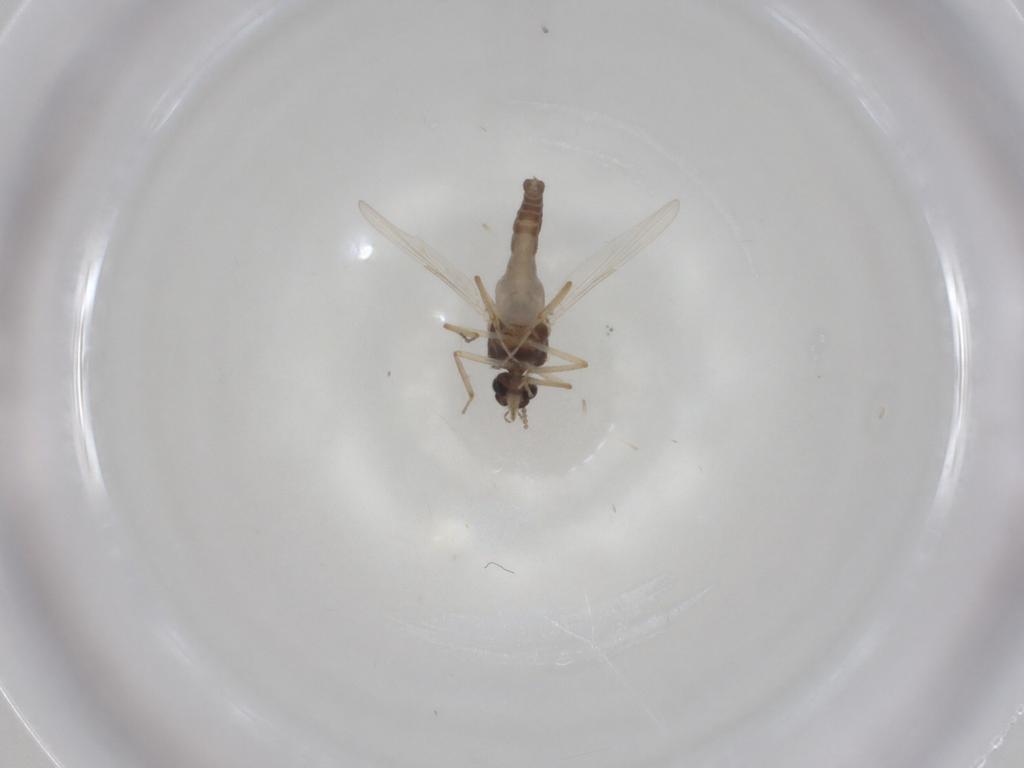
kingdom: Animalia
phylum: Arthropoda
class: Insecta
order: Diptera
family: Ceratopogonidae
